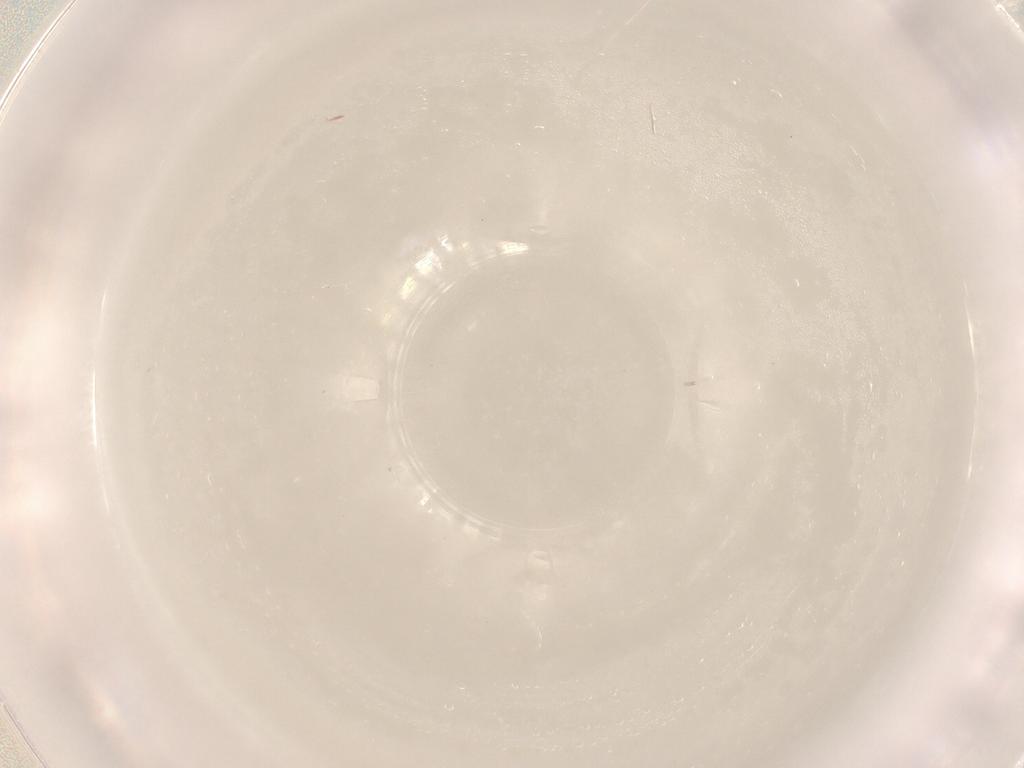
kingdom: Animalia
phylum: Arthropoda
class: Collembola
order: Entomobryomorpha
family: Entomobryidae
